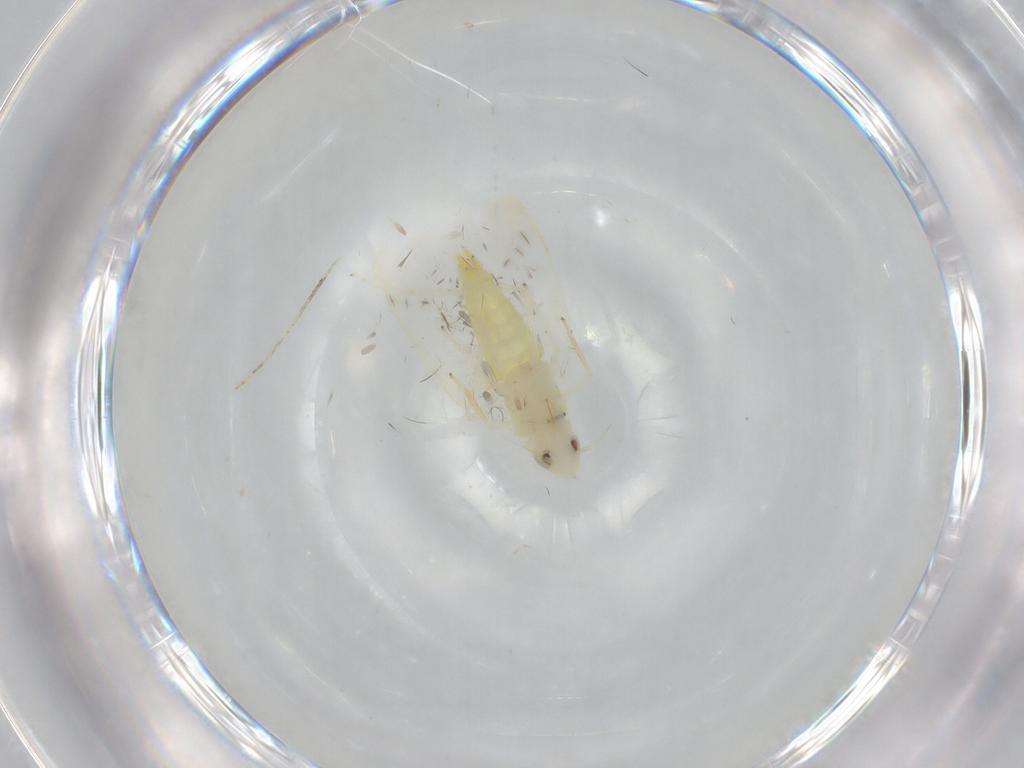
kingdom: Animalia
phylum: Arthropoda
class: Insecta
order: Hemiptera
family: Cicadellidae
